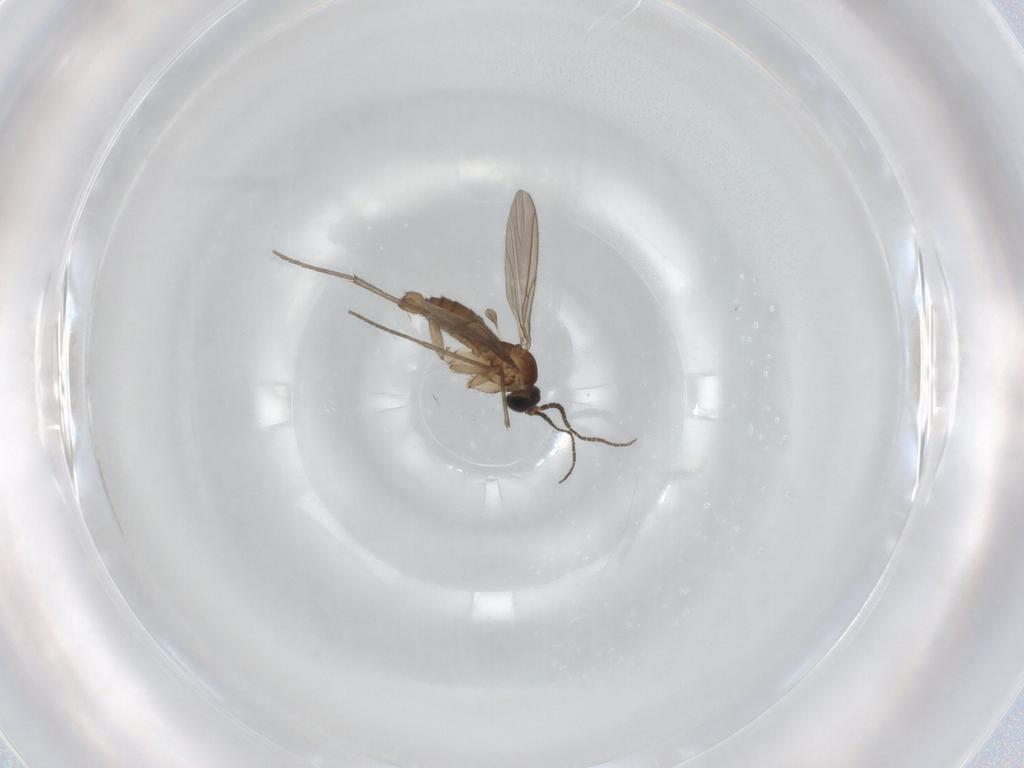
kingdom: Animalia
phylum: Arthropoda
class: Insecta
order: Diptera
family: Sciaridae
